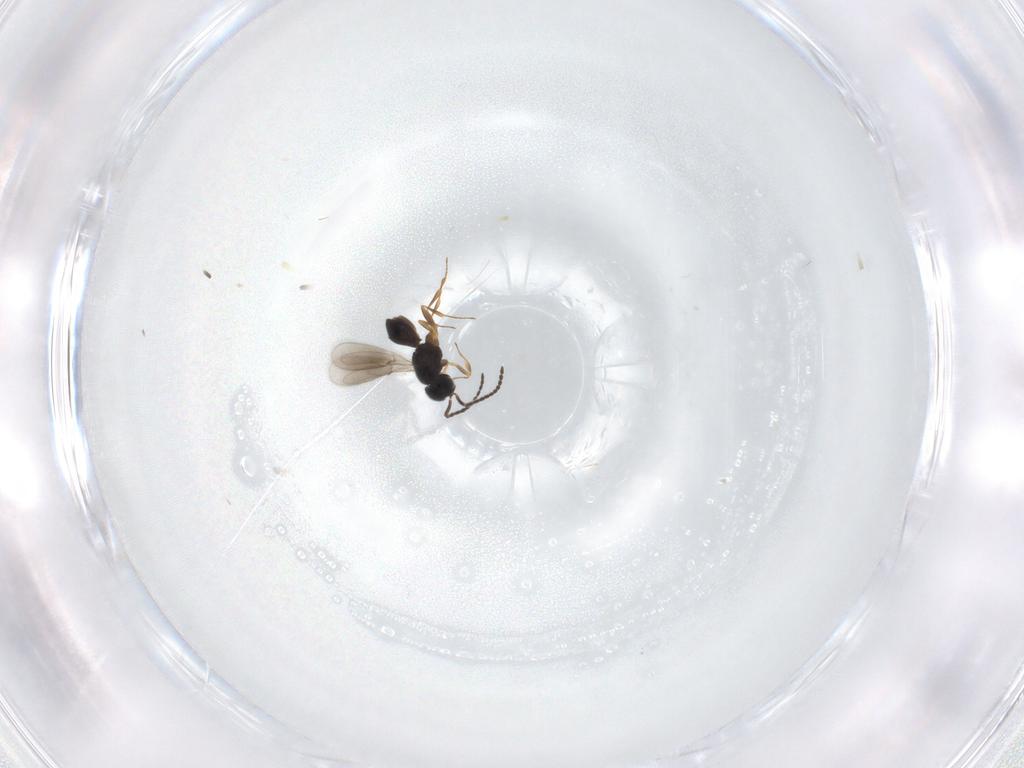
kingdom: Animalia
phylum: Arthropoda
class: Insecta
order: Hymenoptera
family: Scelionidae
